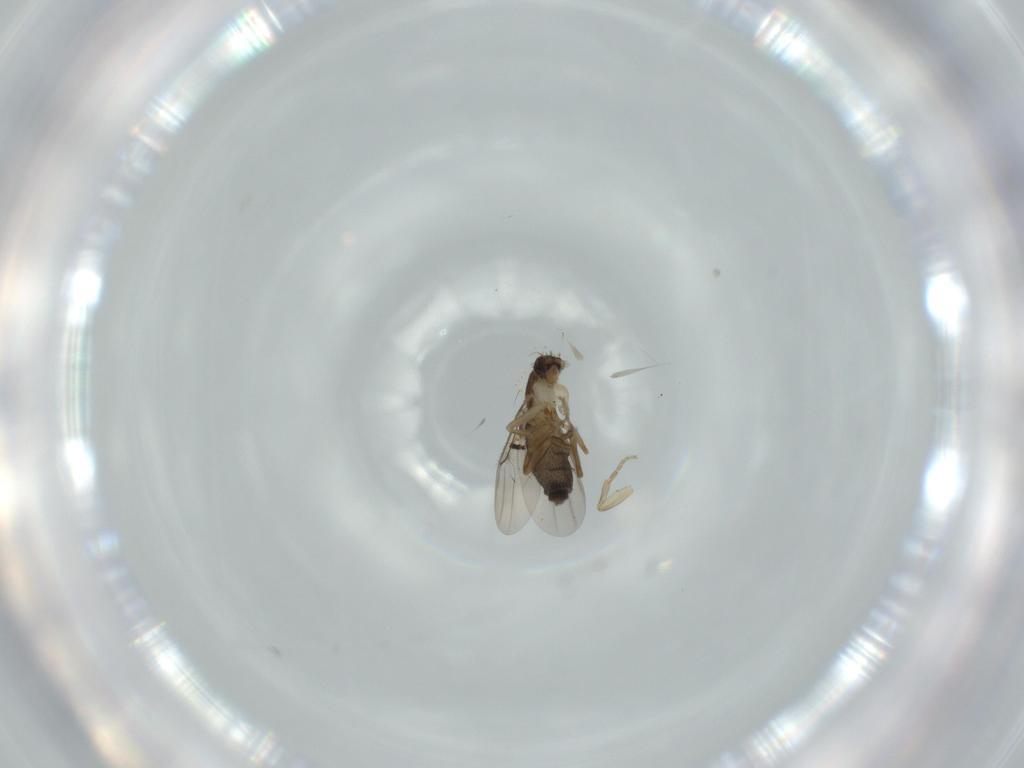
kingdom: Animalia
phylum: Arthropoda
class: Insecta
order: Diptera
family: Phoridae
